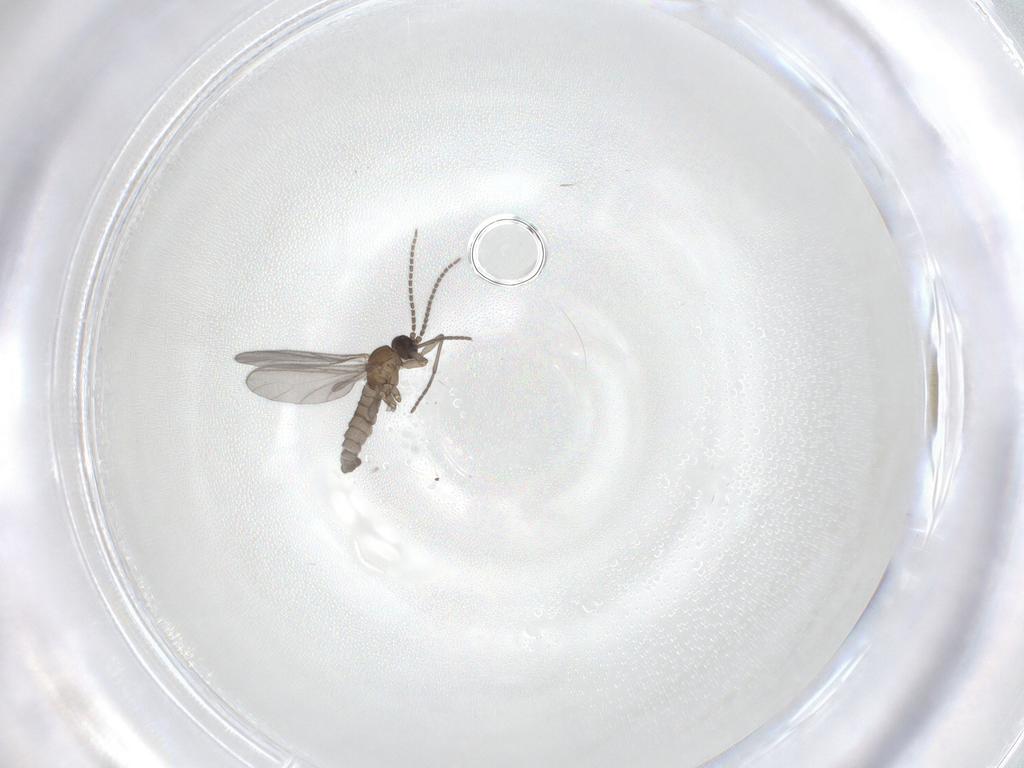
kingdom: Animalia
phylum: Arthropoda
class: Insecta
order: Diptera
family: Sciaridae
